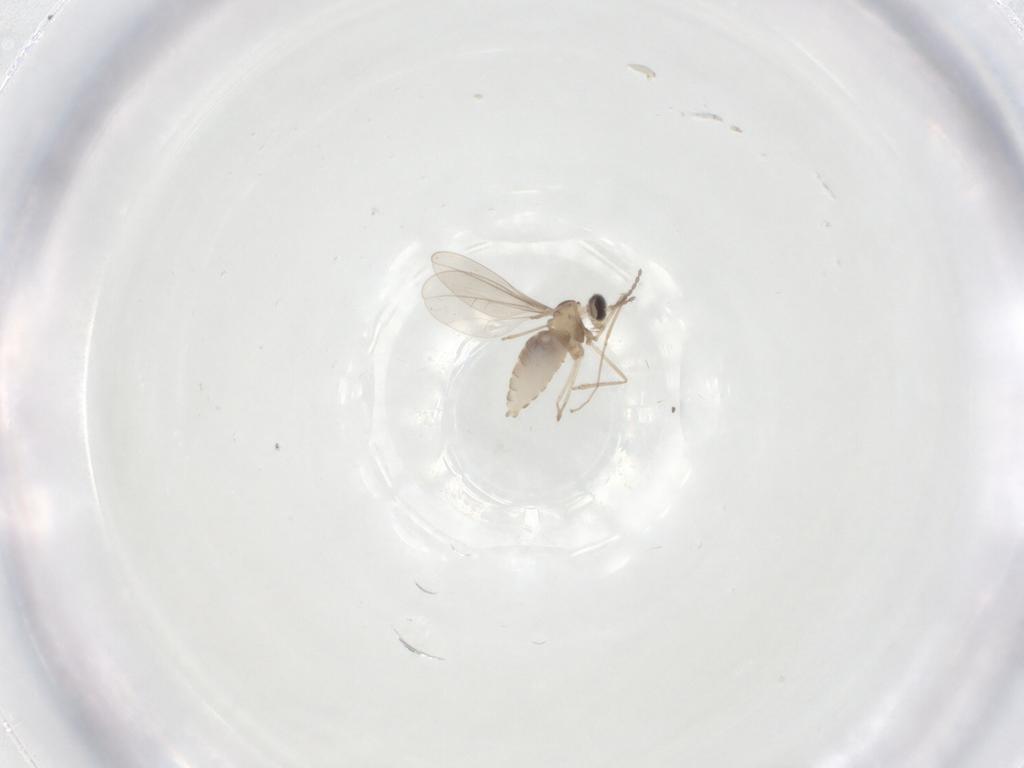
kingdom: Animalia
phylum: Arthropoda
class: Insecta
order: Diptera
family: Cecidomyiidae
